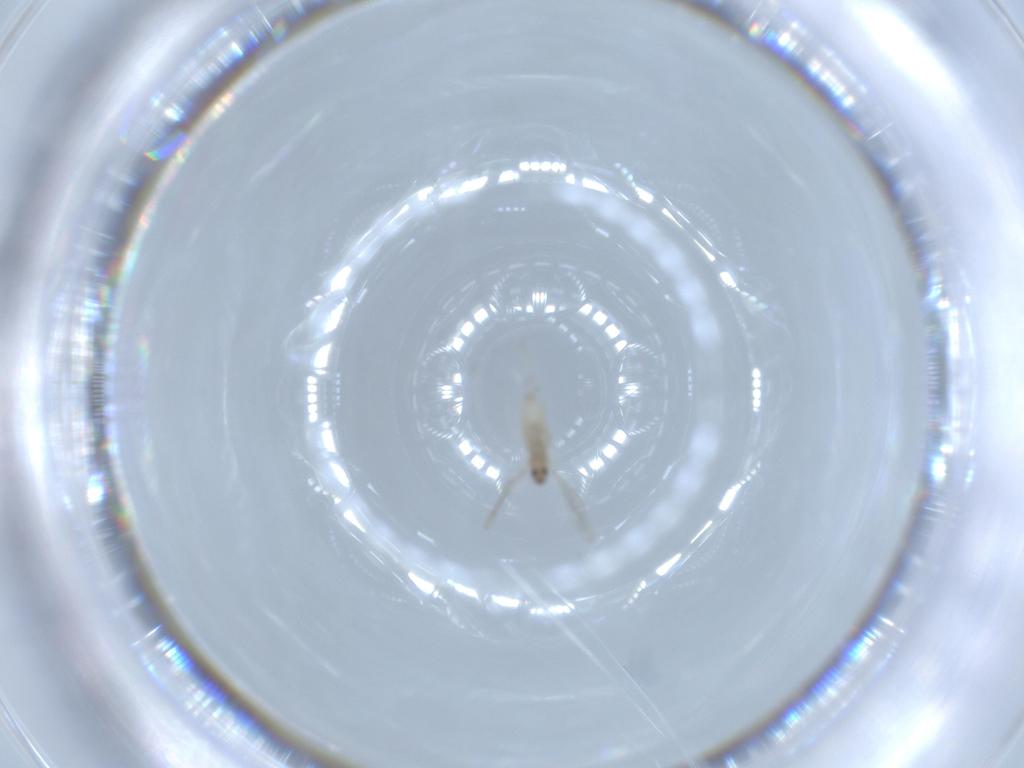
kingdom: Animalia
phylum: Arthropoda
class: Insecta
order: Diptera
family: Cecidomyiidae
